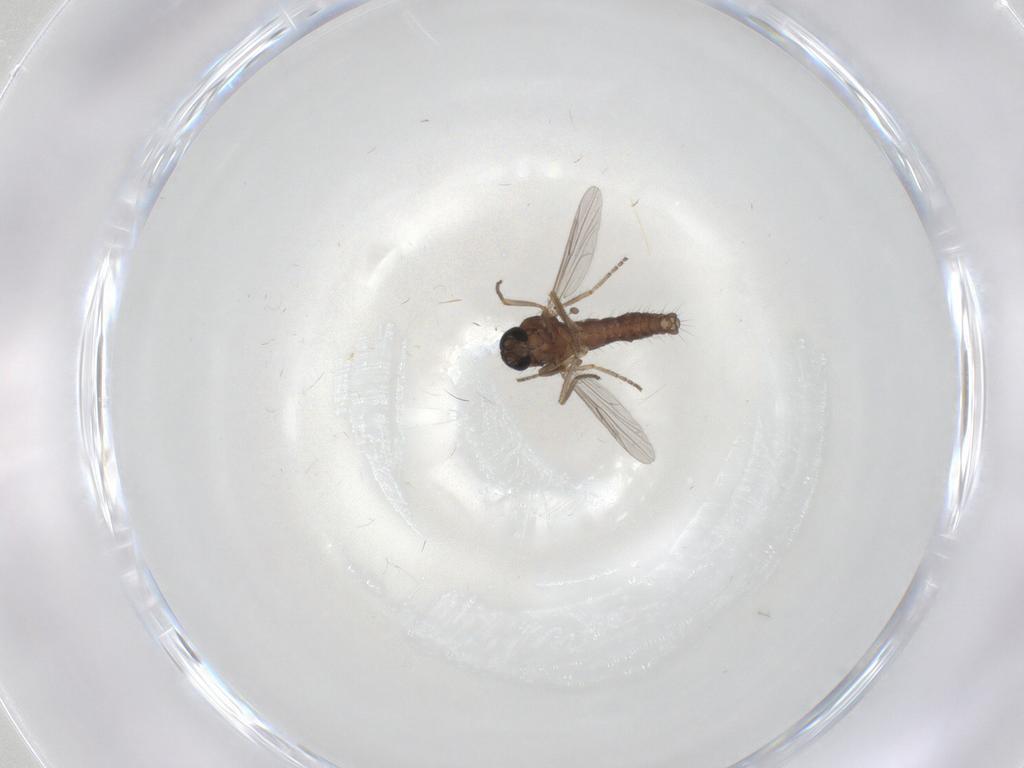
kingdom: Animalia
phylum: Arthropoda
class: Insecta
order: Diptera
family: Ceratopogonidae
